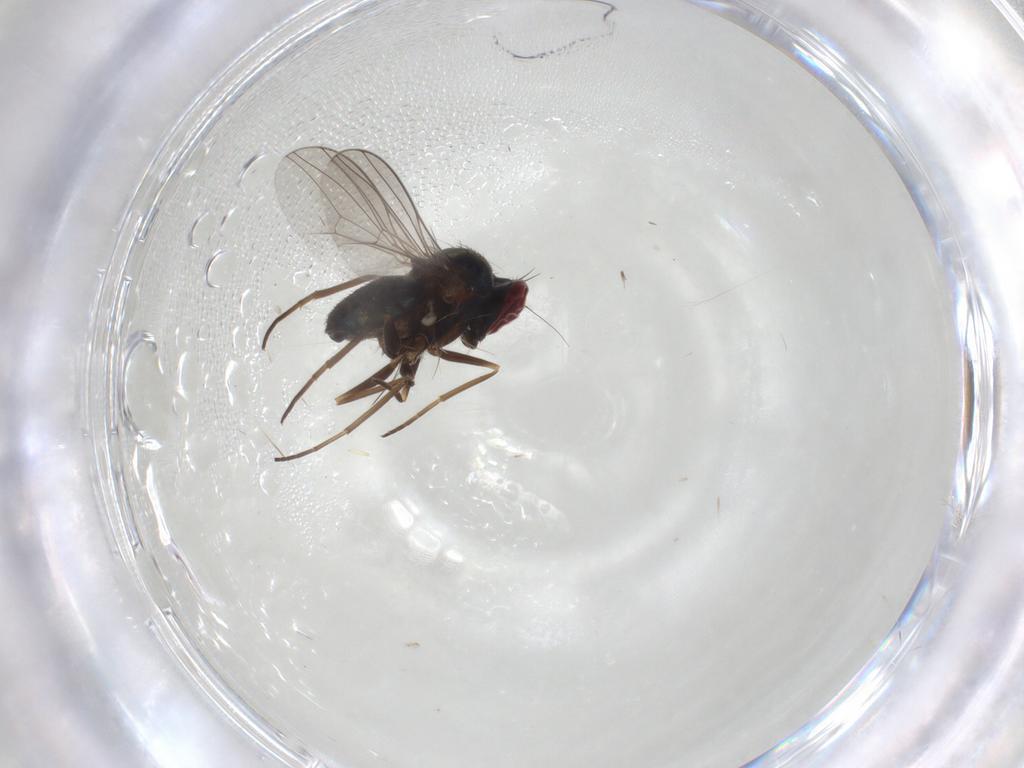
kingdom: Animalia
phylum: Arthropoda
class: Insecta
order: Diptera
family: Dolichopodidae
